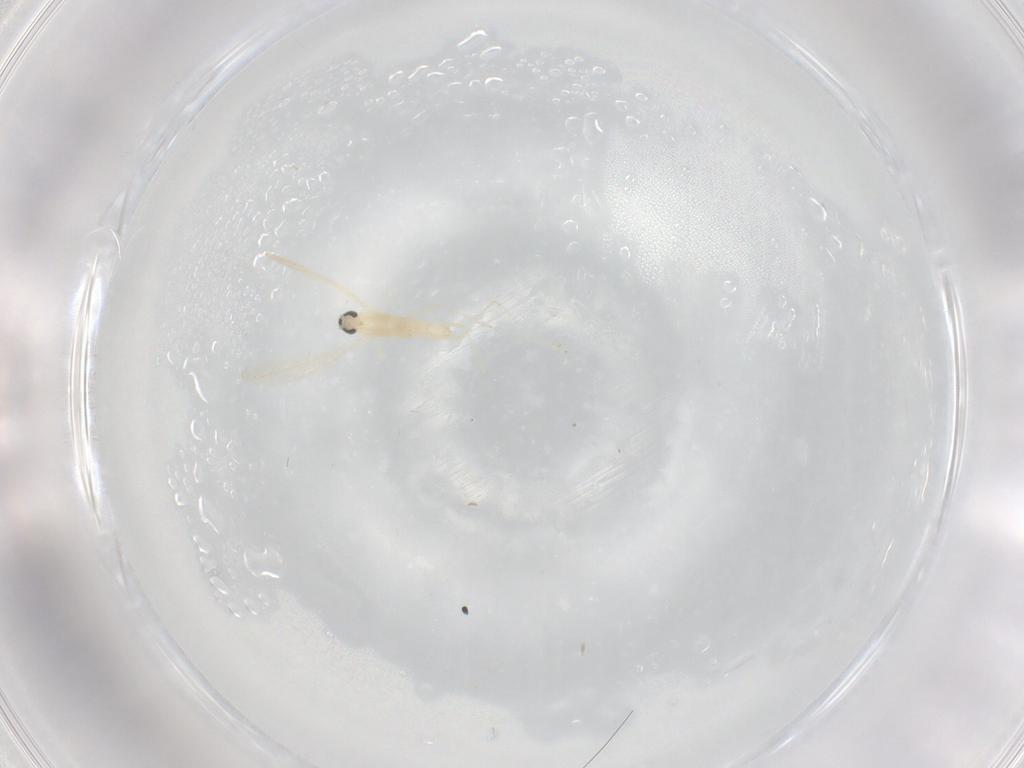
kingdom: Animalia
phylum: Arthropoda
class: Insecta
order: Diptera
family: Cecidomyiidae
